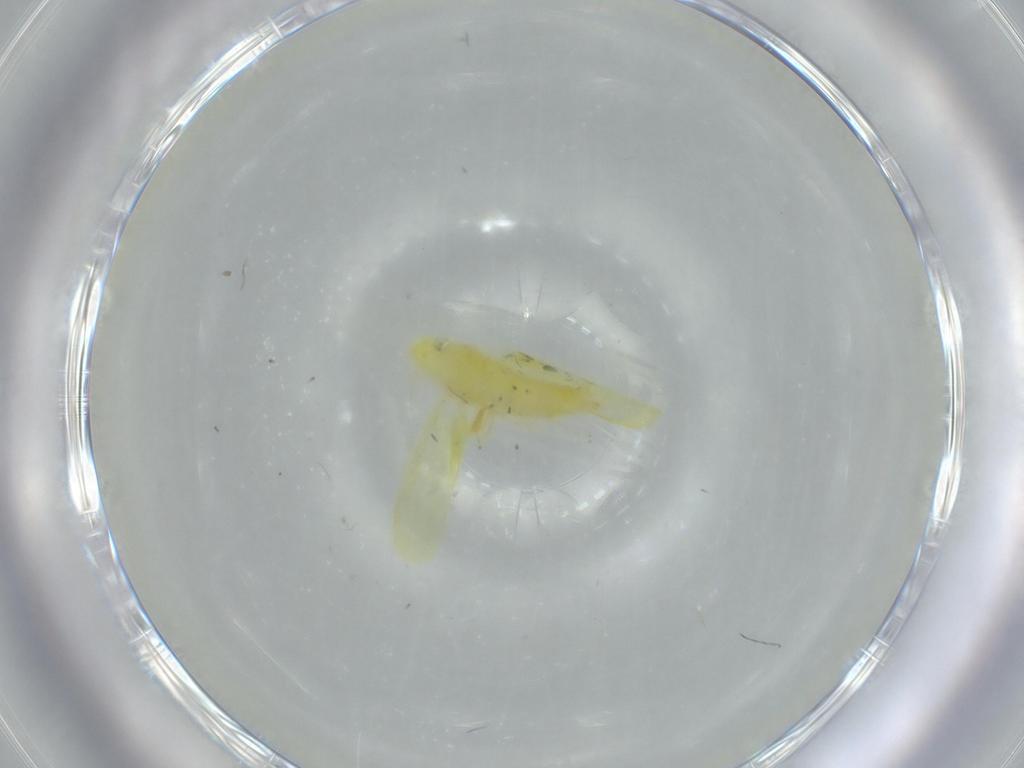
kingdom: Animalia
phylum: Arthropoda
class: Insecta
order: Hemiptera
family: Cicadellidae
